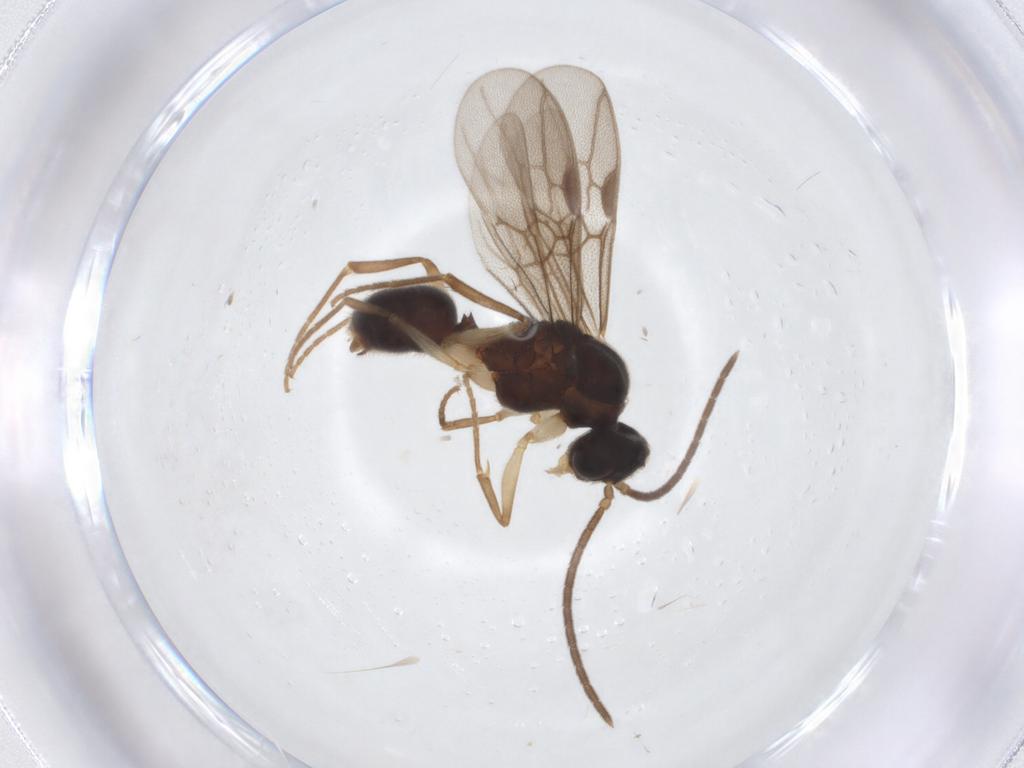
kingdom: Animalia
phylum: Arthropoda
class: Insecta
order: Hymenoptera
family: Formicidae
